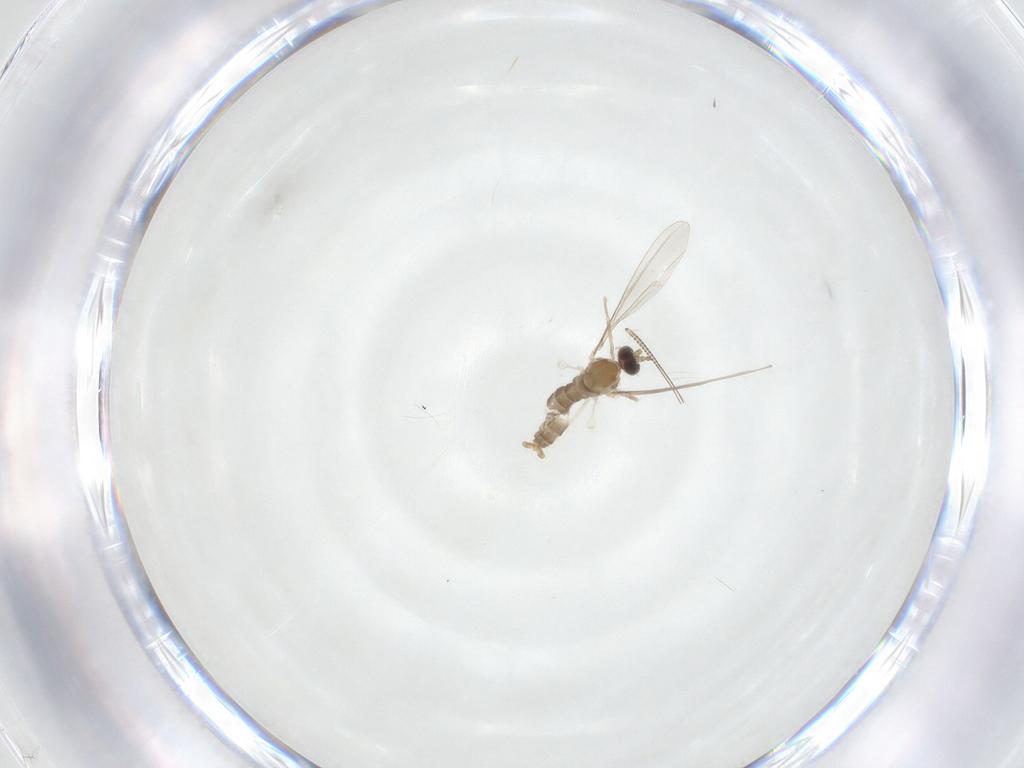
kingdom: Animalia
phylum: Arthropoda
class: Insecta
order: Diptera
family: Cecidomyiidae
